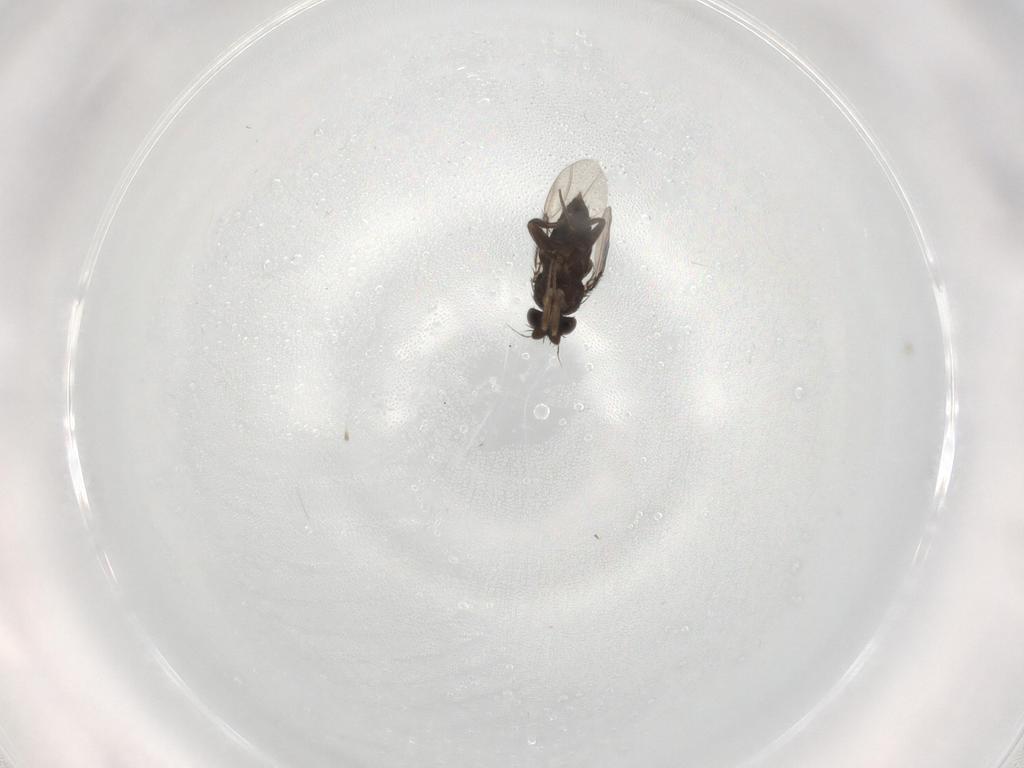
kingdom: Animalia
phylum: Arthropoda
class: Insecta
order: Diptera
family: Phoridae
